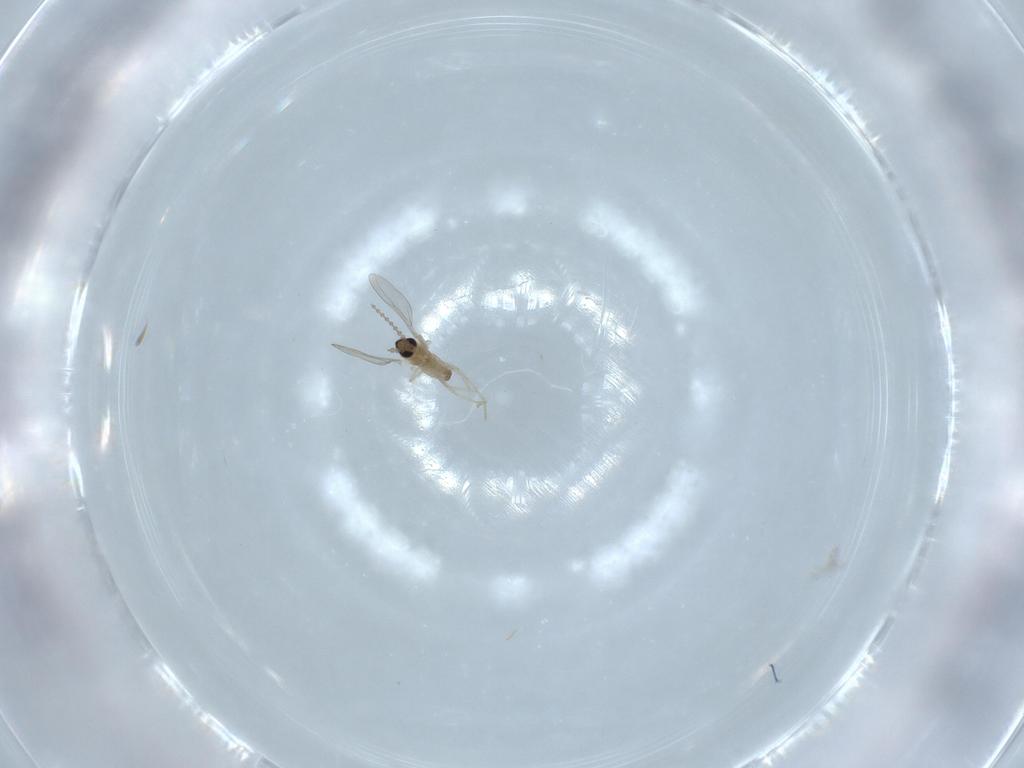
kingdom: Animalia
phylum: Arthropoda
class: Insecta
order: Diptera
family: Cecidomyiidae
